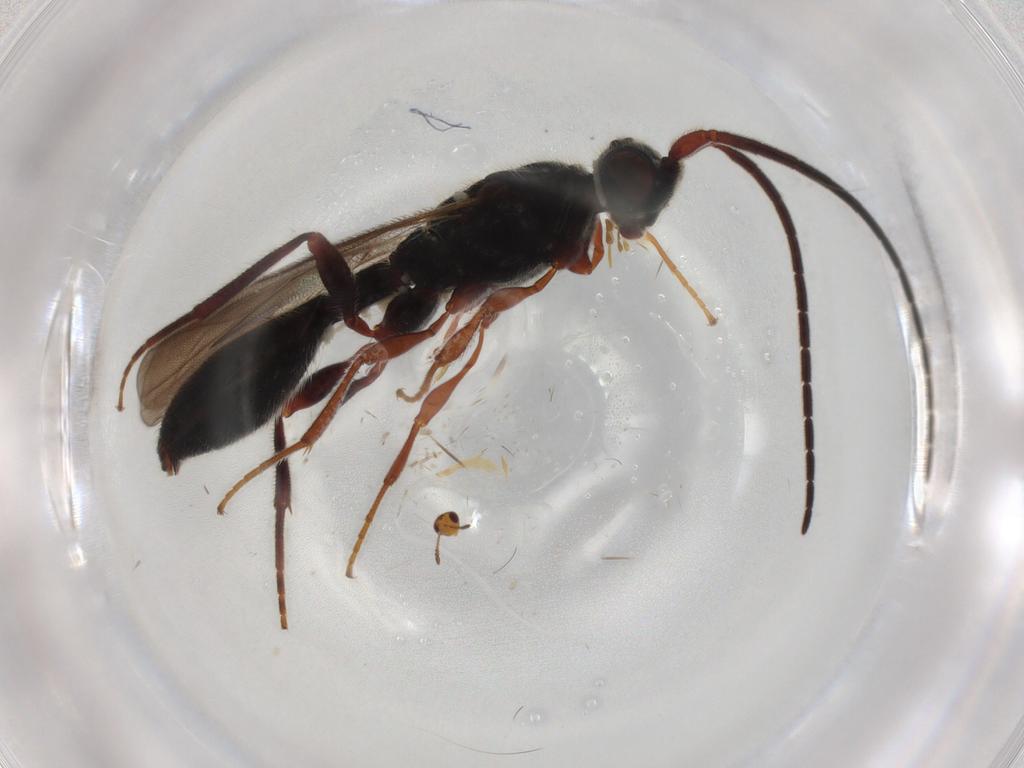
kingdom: Animalia
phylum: Arthropoda
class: Insecta
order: Hymenoptera
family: Diapriidae
